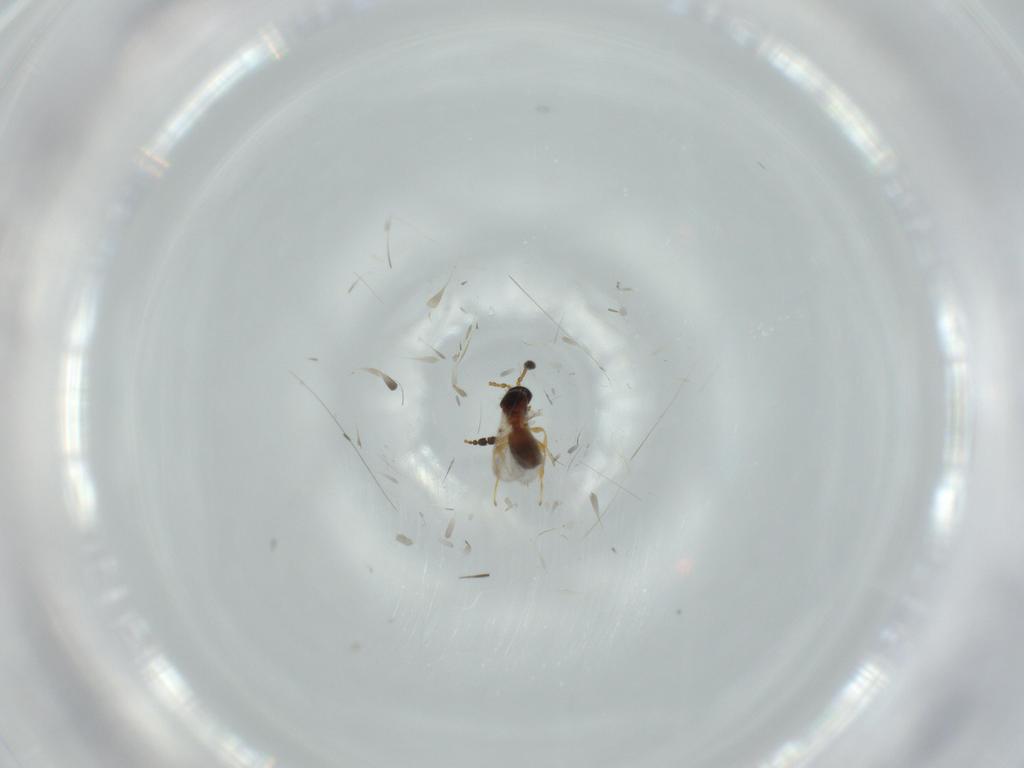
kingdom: Animalia
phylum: Arthropoda
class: Insecta
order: Hymenoptera
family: Diapriidae
